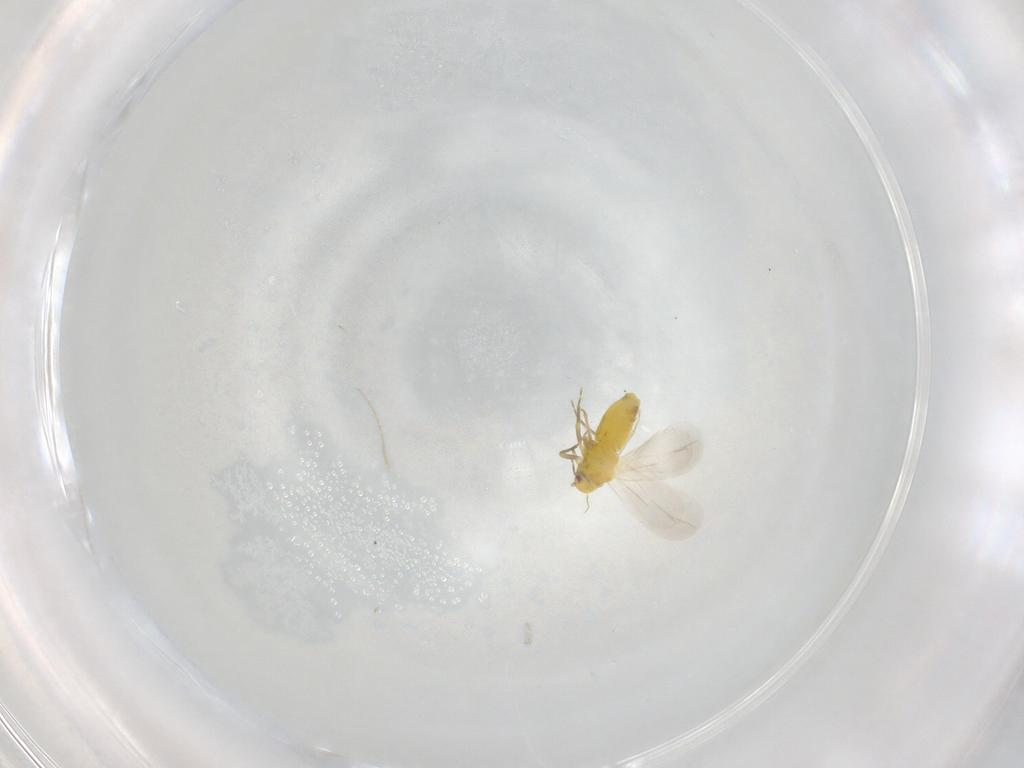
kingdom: Animalia
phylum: Arthropoda
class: Insecta
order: Hemiptera
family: Aleyrodidae
